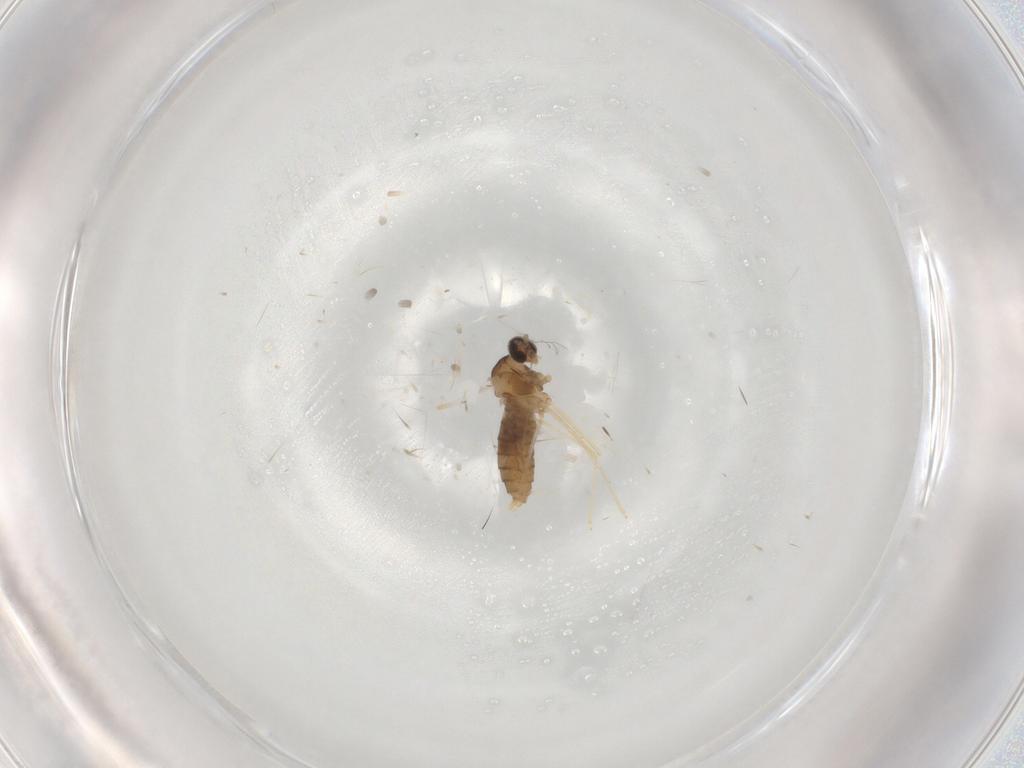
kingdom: Animalia
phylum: Arthropoda
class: Insecta
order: Diptera
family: Cecidomyiidae
